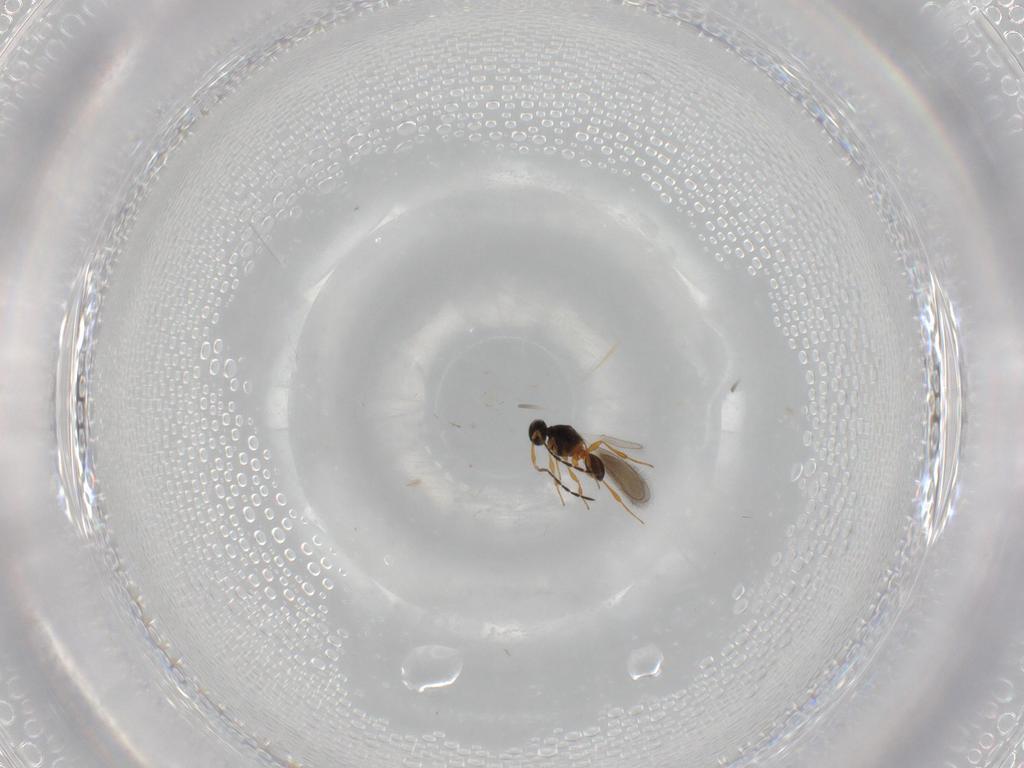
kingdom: Animalia
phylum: Arthropoda
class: Insecta
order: Hymenoptera
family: Platygastridae
